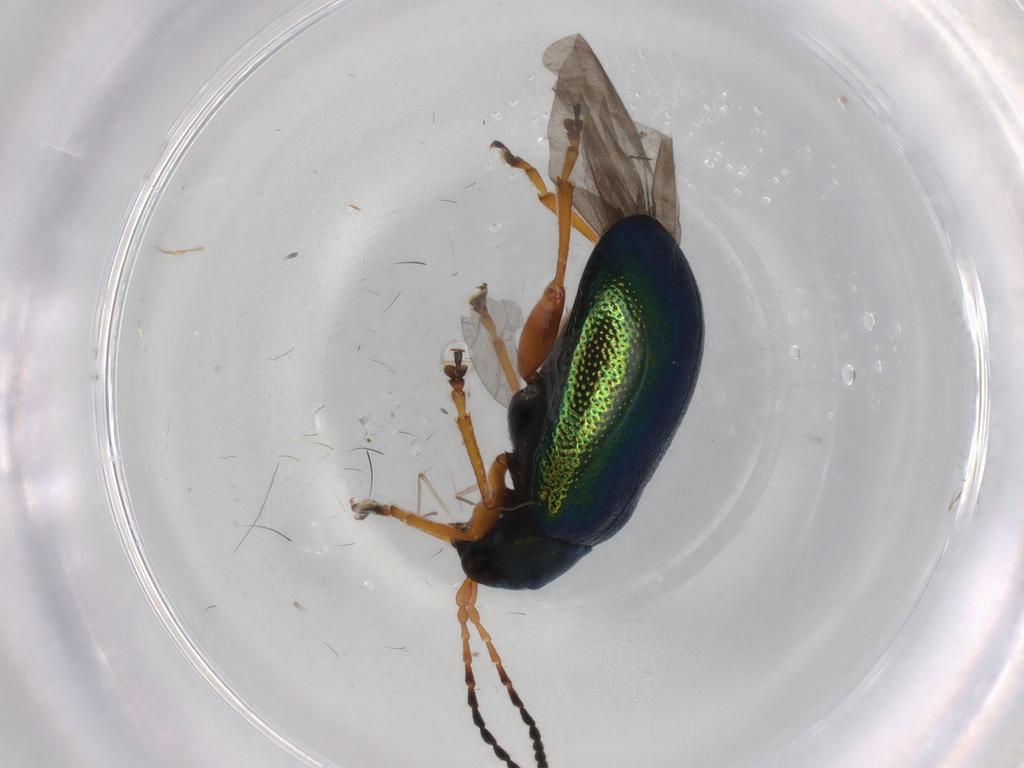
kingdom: Animalia
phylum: Arthropoda
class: Insecta
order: Coleoptera
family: Chrysomelidae
